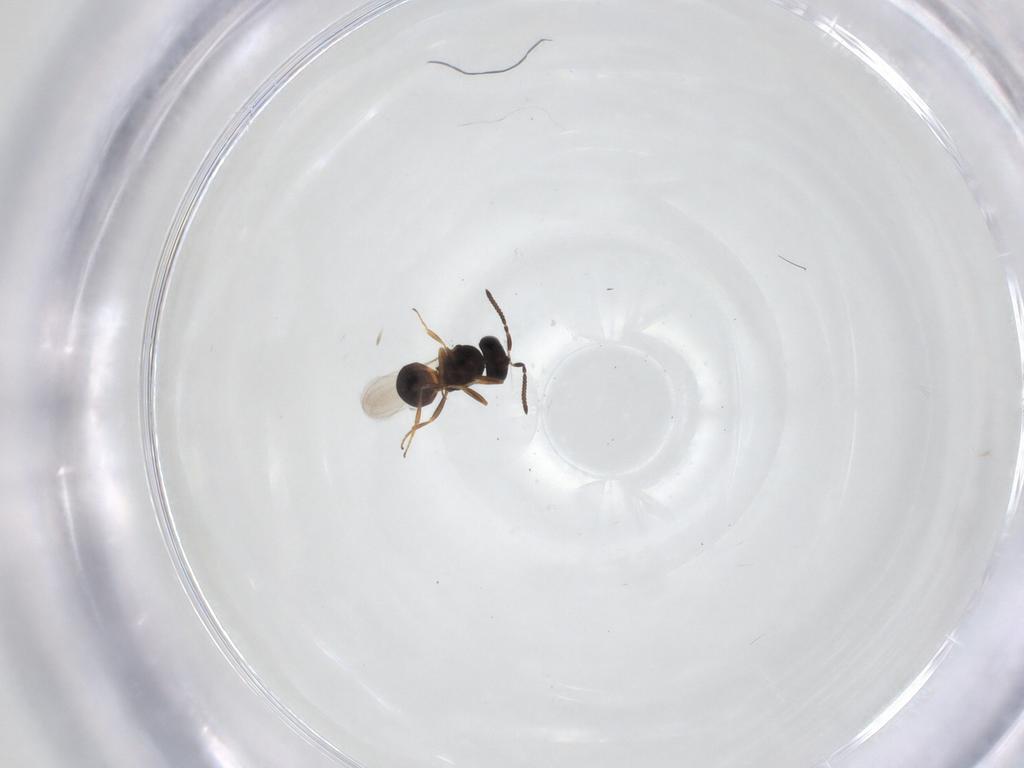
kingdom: Animalia
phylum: Arthropoda
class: Arachnida
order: Araneae
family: Pholcidae
